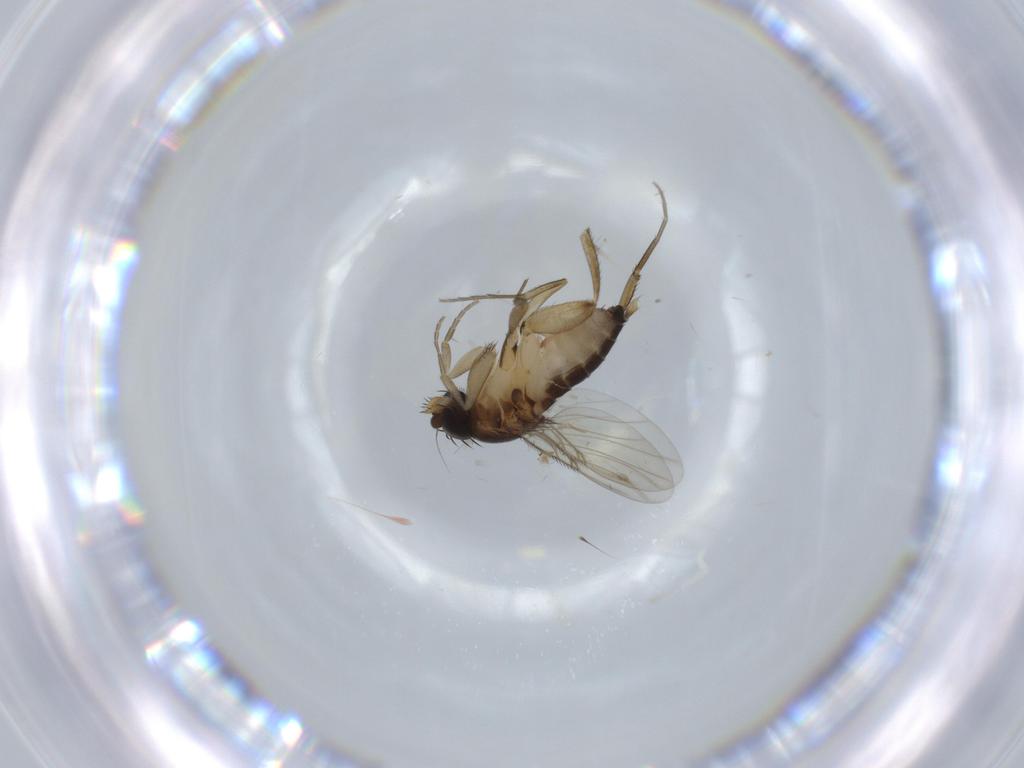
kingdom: Animalia
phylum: Arthropoda
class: Insecta
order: Diptera
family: Phoridae
